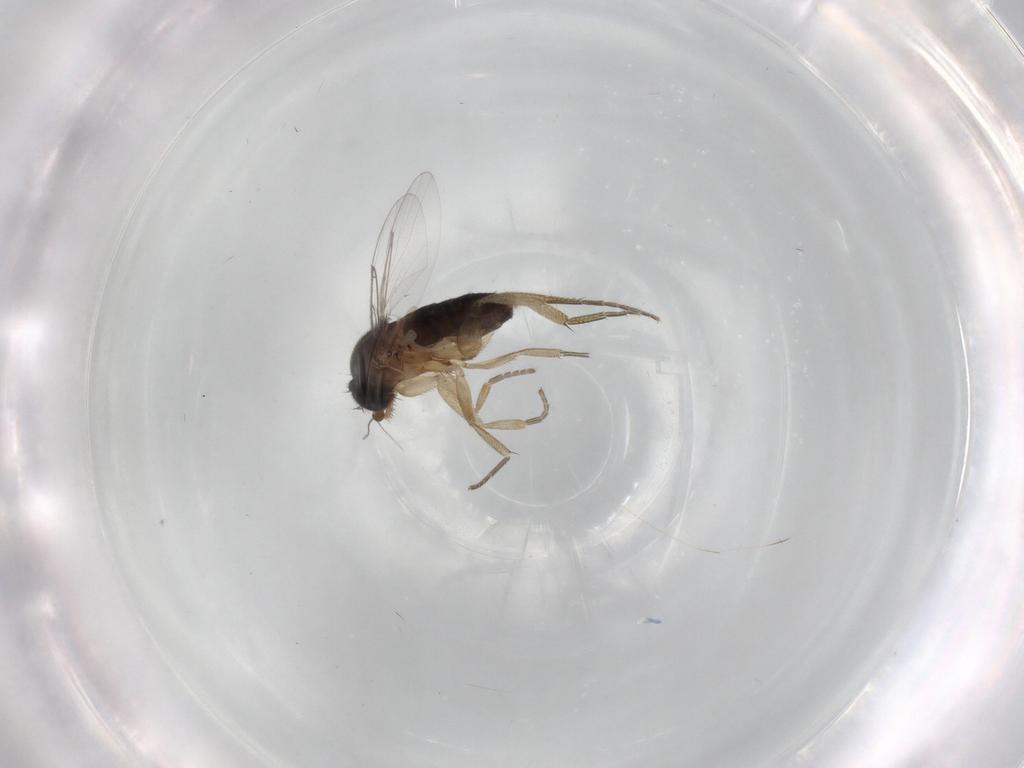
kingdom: Animalia
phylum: Arthropoda
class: Insecta
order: Diptera
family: Phoridae
